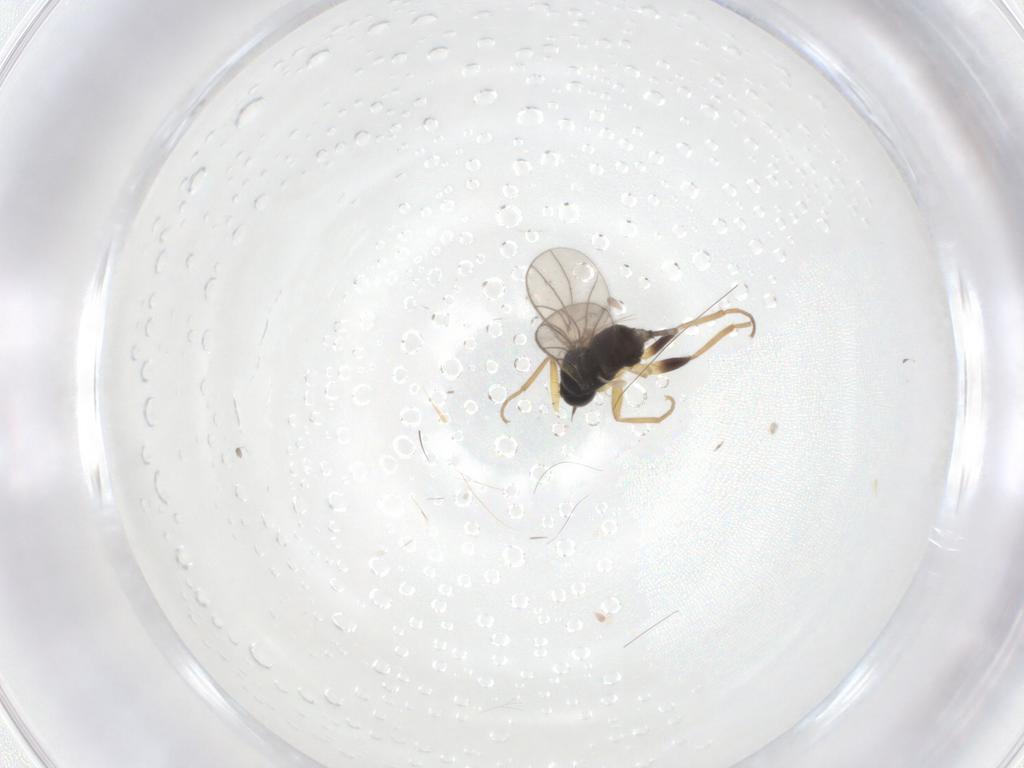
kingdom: Animalia
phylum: Arthropoda
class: Insecta
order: Diptera
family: Hybotidae
